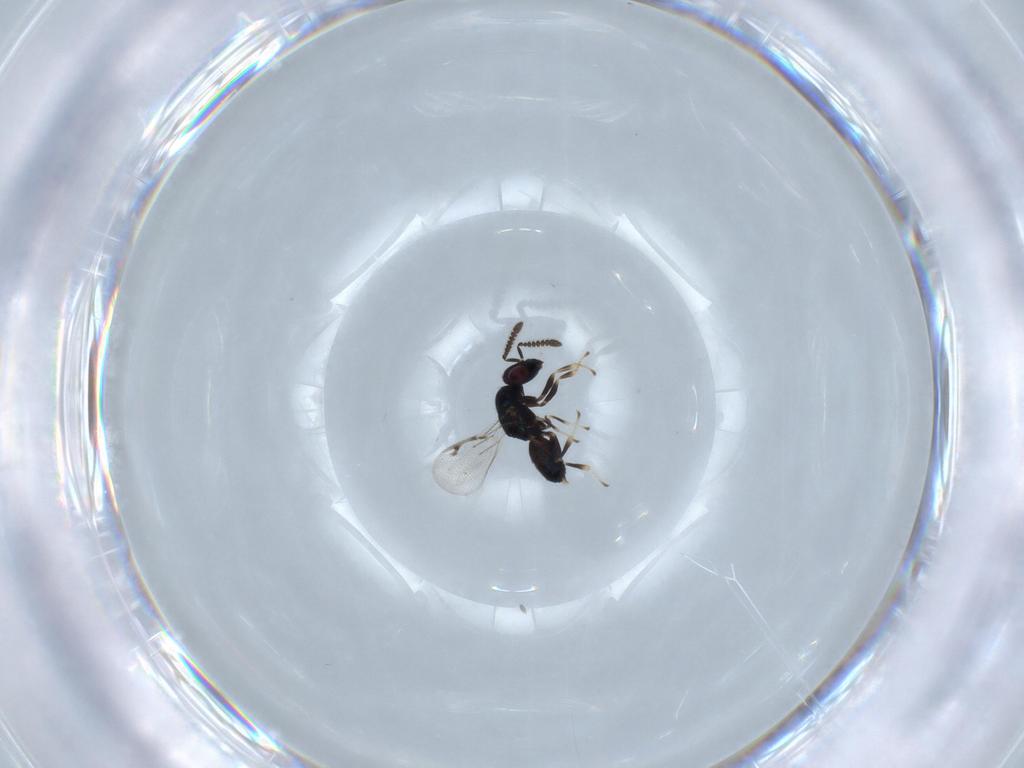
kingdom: Animalia
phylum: Arthropoda
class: Insecta
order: Hymenoptera
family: Pteromalidae
